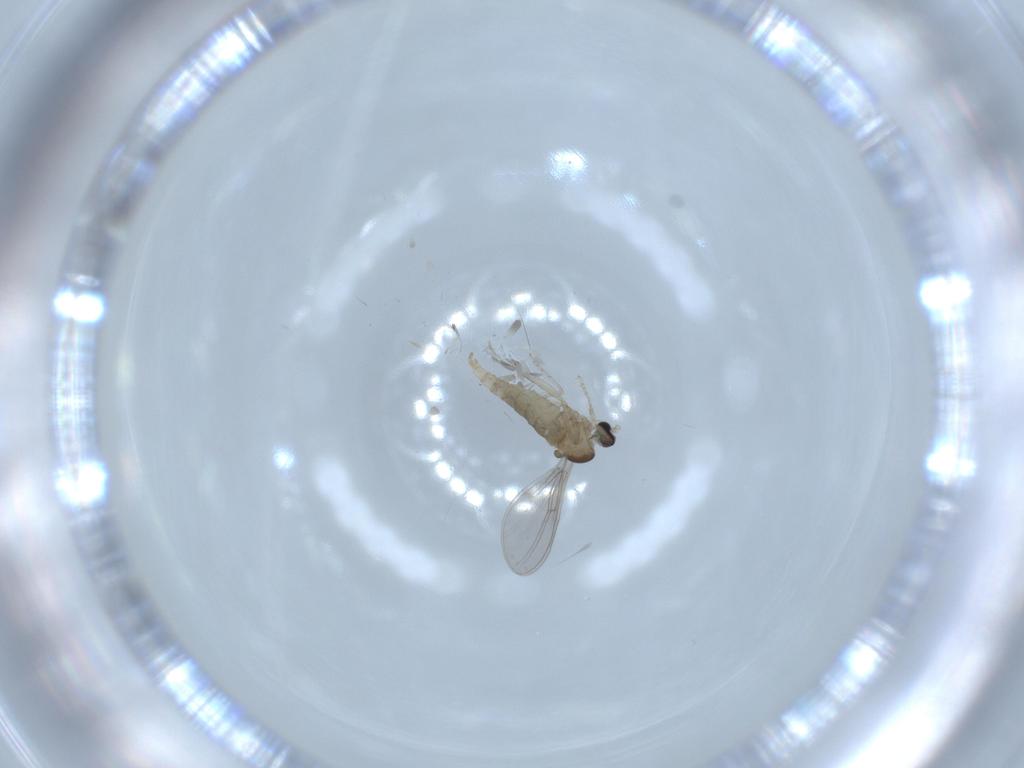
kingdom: Animalia
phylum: Arthropoda
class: Insecta
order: Diptera
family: Cecidomyiidae
